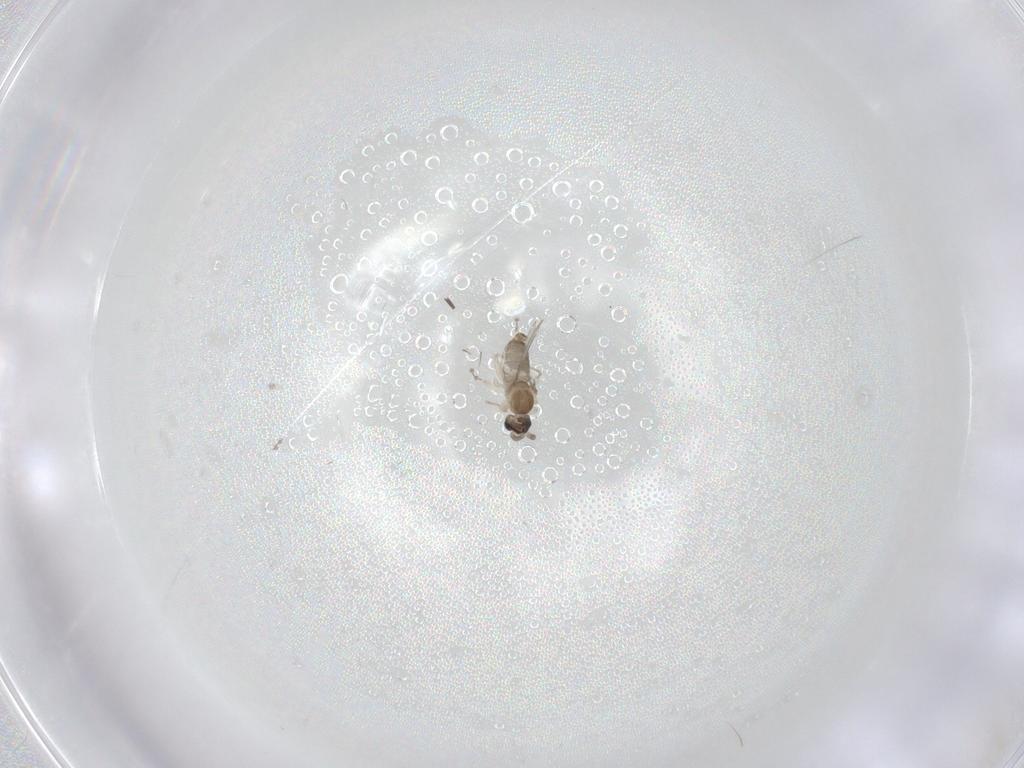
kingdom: Animalia
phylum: Arthropoda
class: Insecta
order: Diptera
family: Cecidomyiidae
